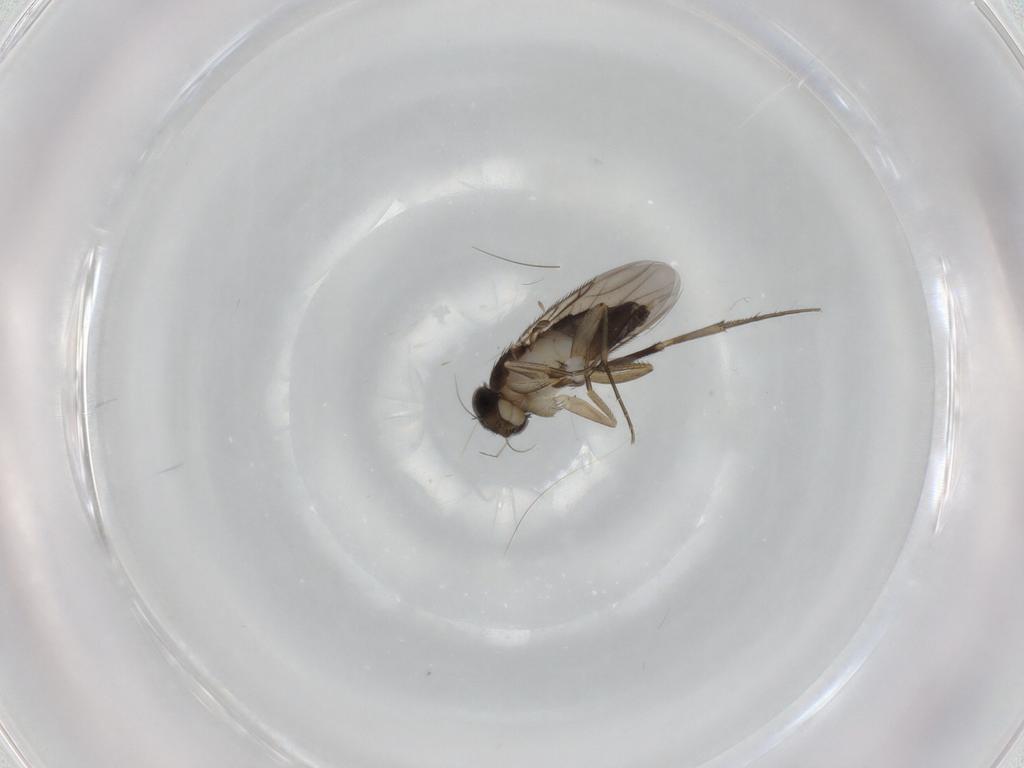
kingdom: Animalia
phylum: Arthropoda
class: Insecta
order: Diptera
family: Phoridae
